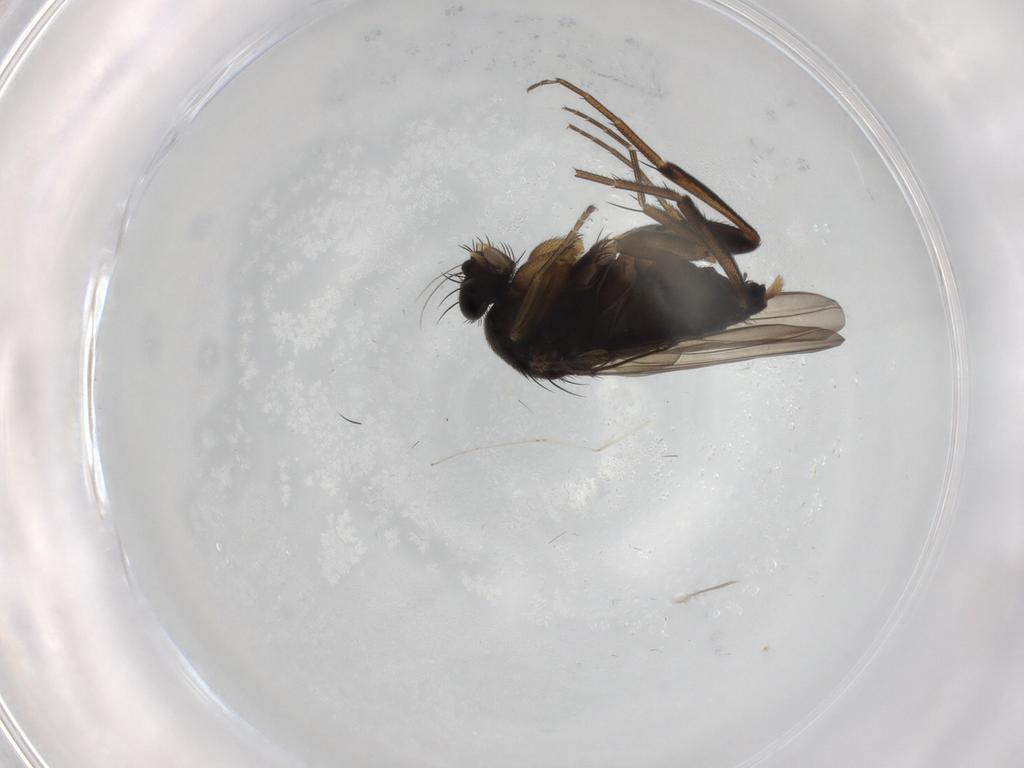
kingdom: Animalia
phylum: Arthropoda
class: Insecta
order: Diptera
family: Phoridae
